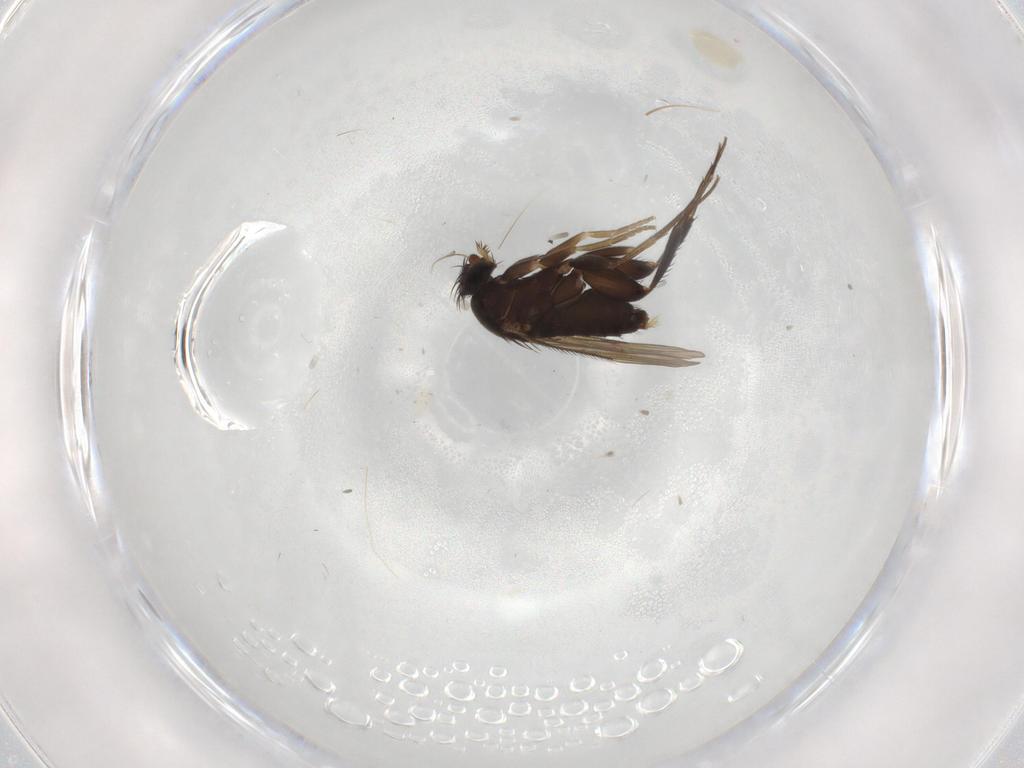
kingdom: Animalia
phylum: Arthropoda
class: Insecta
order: Diptera
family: Phoridae
